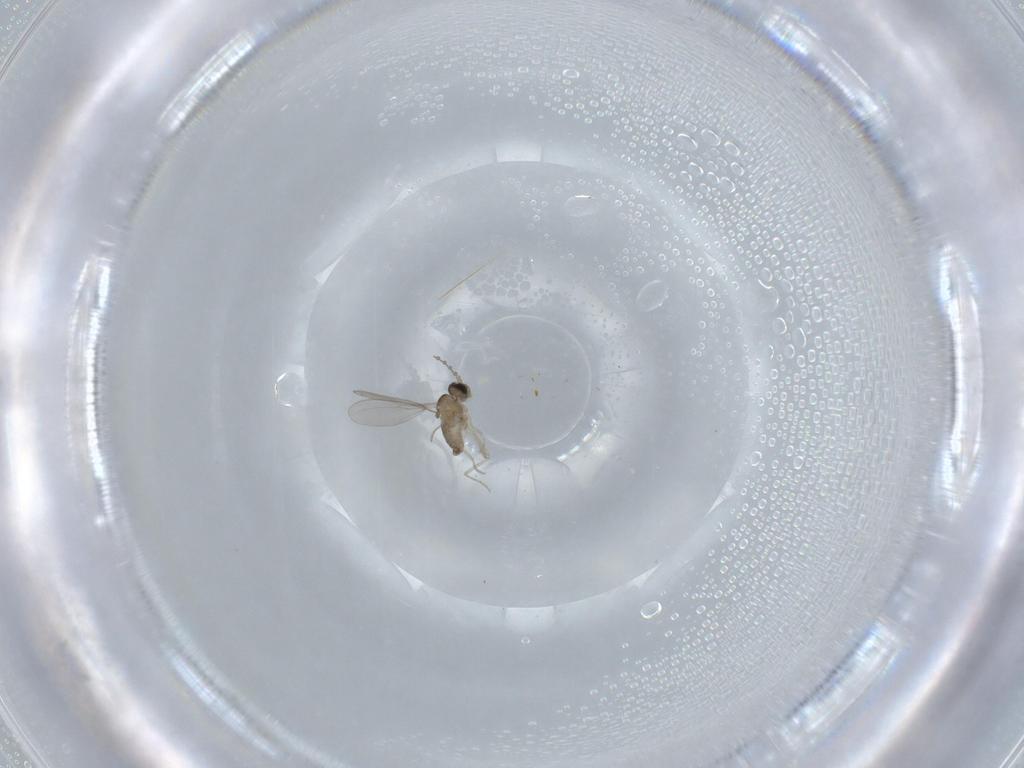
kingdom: Animalia
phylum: Arthropoda
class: Insecta
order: Diptera
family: Cecidomyiidae
